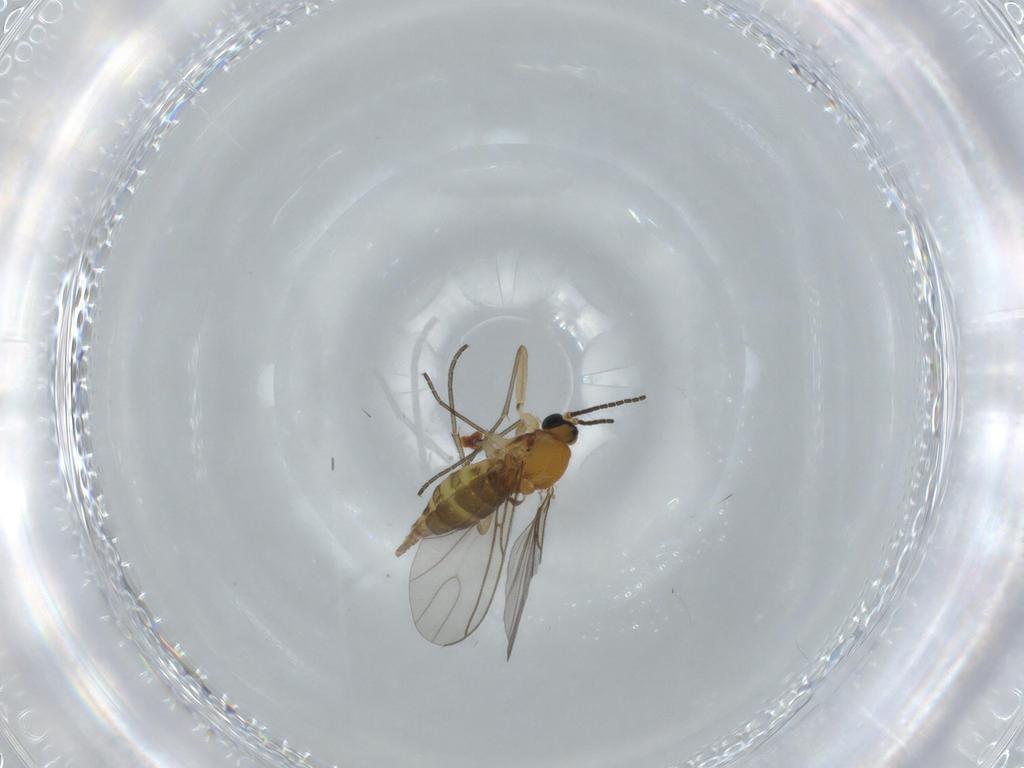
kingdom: Animalia
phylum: Arthropoda
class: Insecta
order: Diptera
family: Sciaridae
